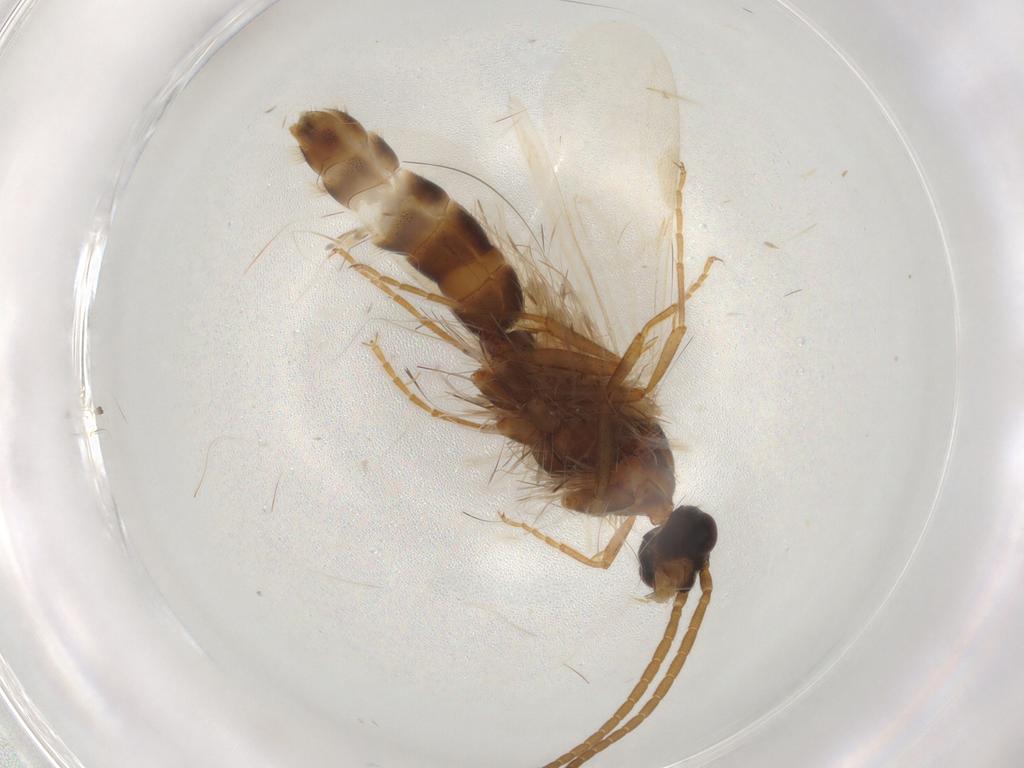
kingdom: Animalia
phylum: Arthropoda
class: Insecta
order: Hymenoptera
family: Formicidae
